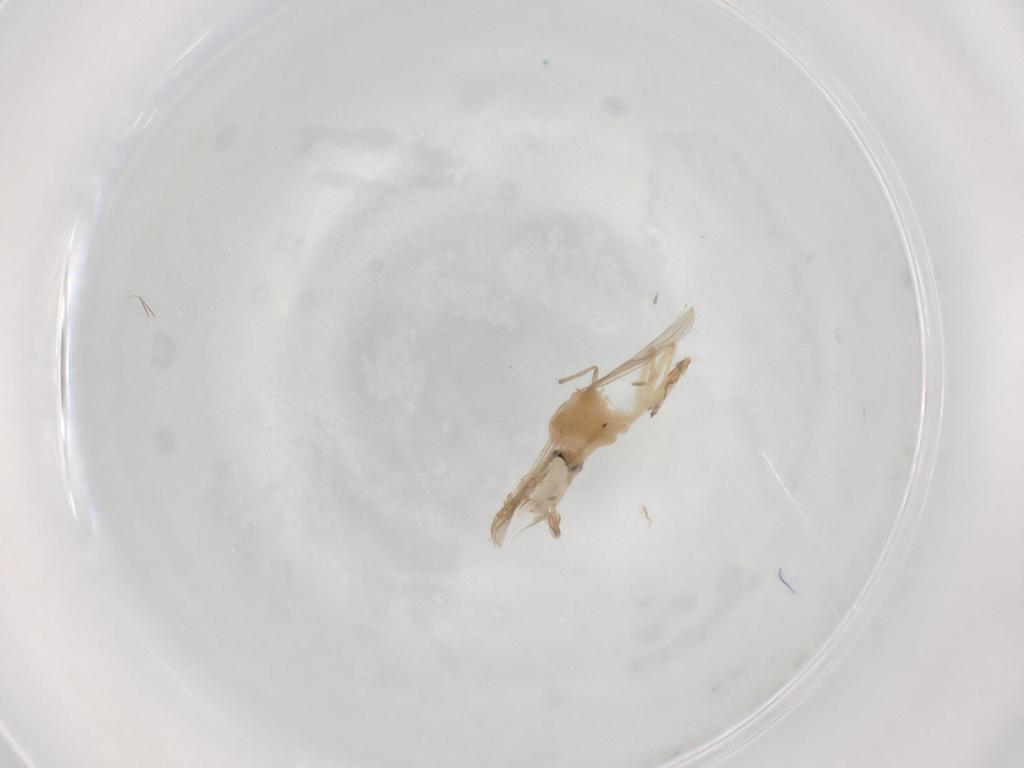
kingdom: Animalia
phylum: Arthropoda
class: Insecta
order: Diptera
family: Chironomidae
